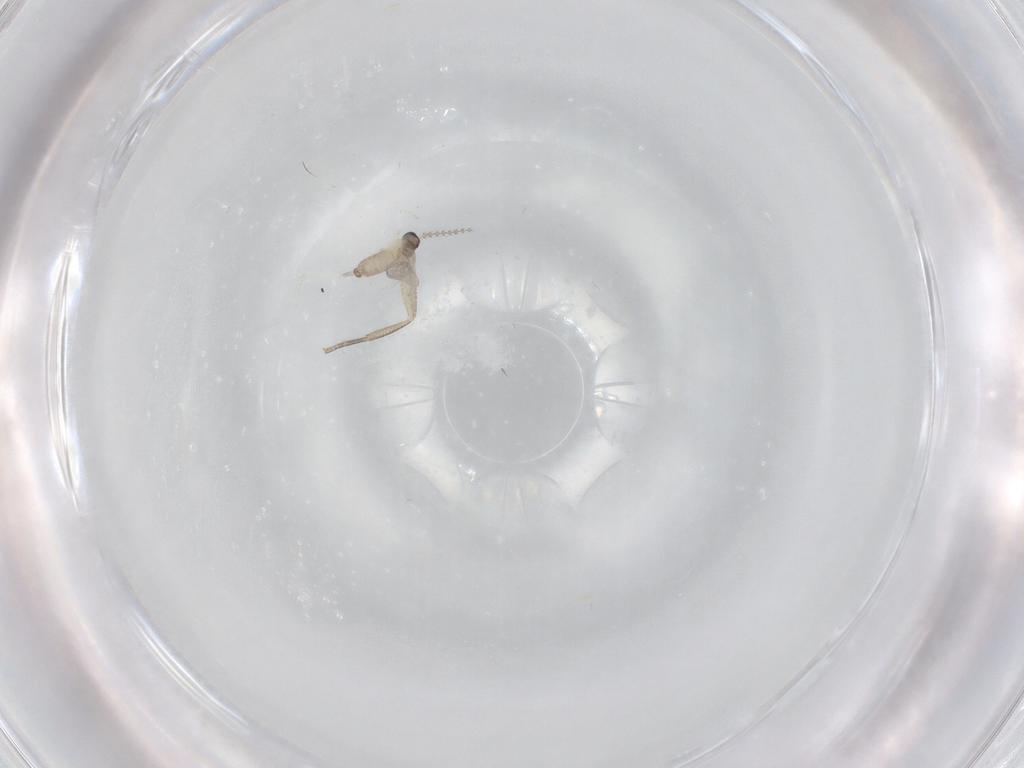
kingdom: Animalia
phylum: Arthropoda
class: Insecta
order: Diptera
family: Cecidomyiidae
